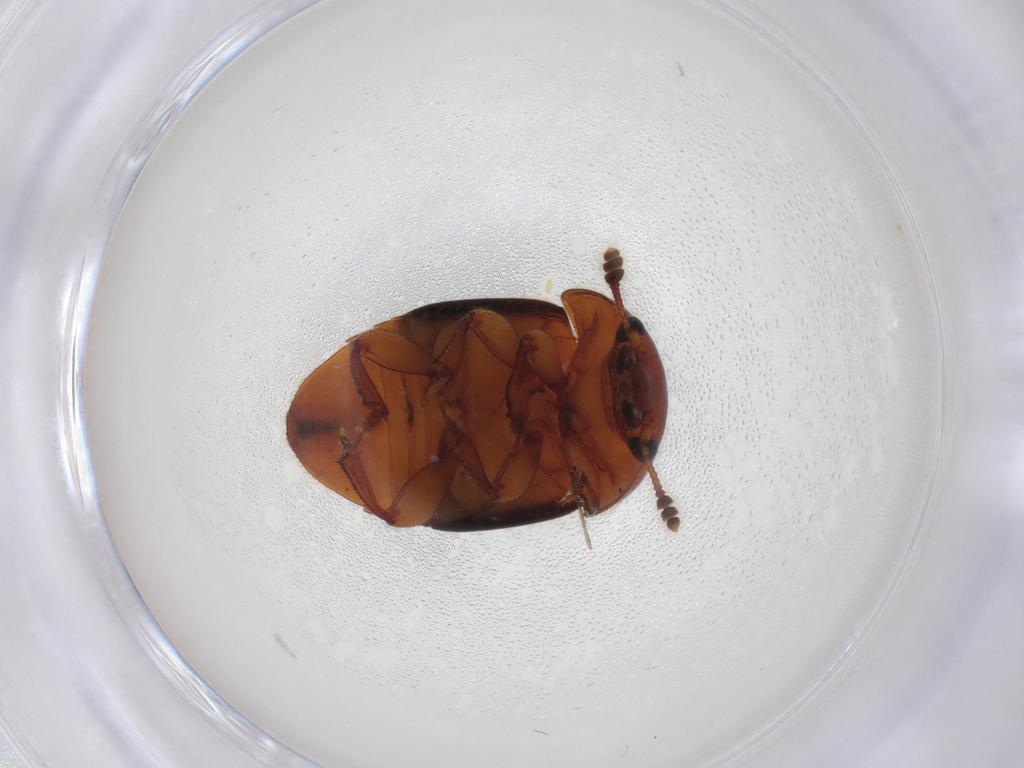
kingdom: Animalia
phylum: Arthropoda
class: Insecta
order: Coleoptera
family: Nitidulidae
